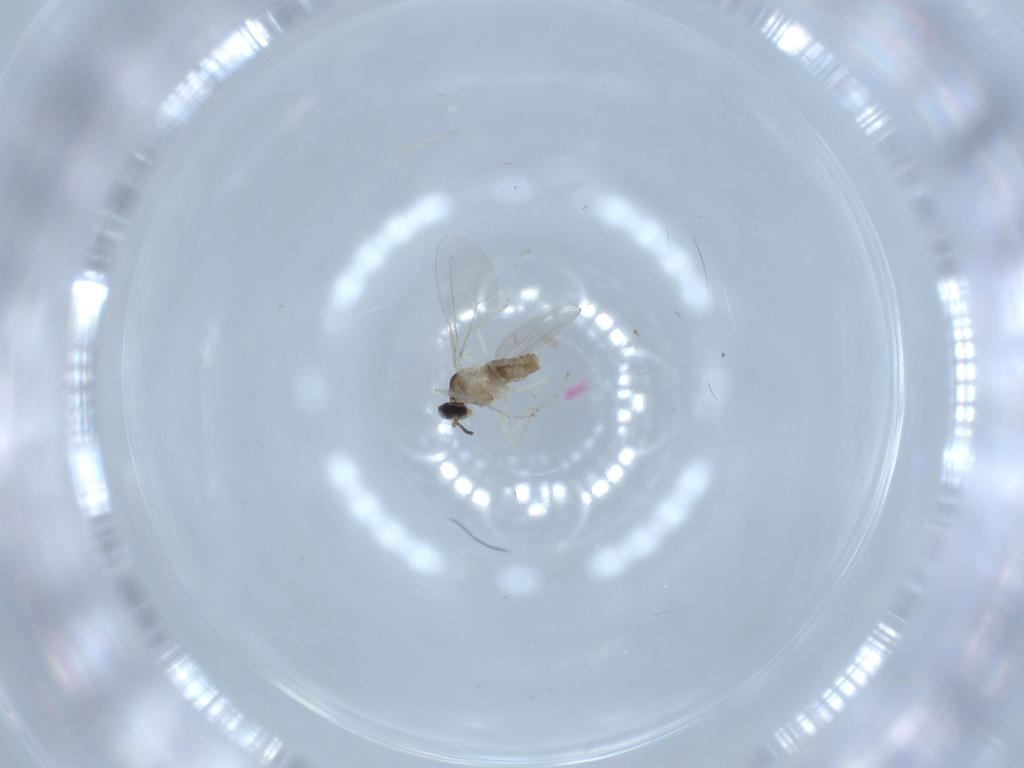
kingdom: Animalia
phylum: Arthropoda
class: Insecta
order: Diptera
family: Cecidomyiidae
